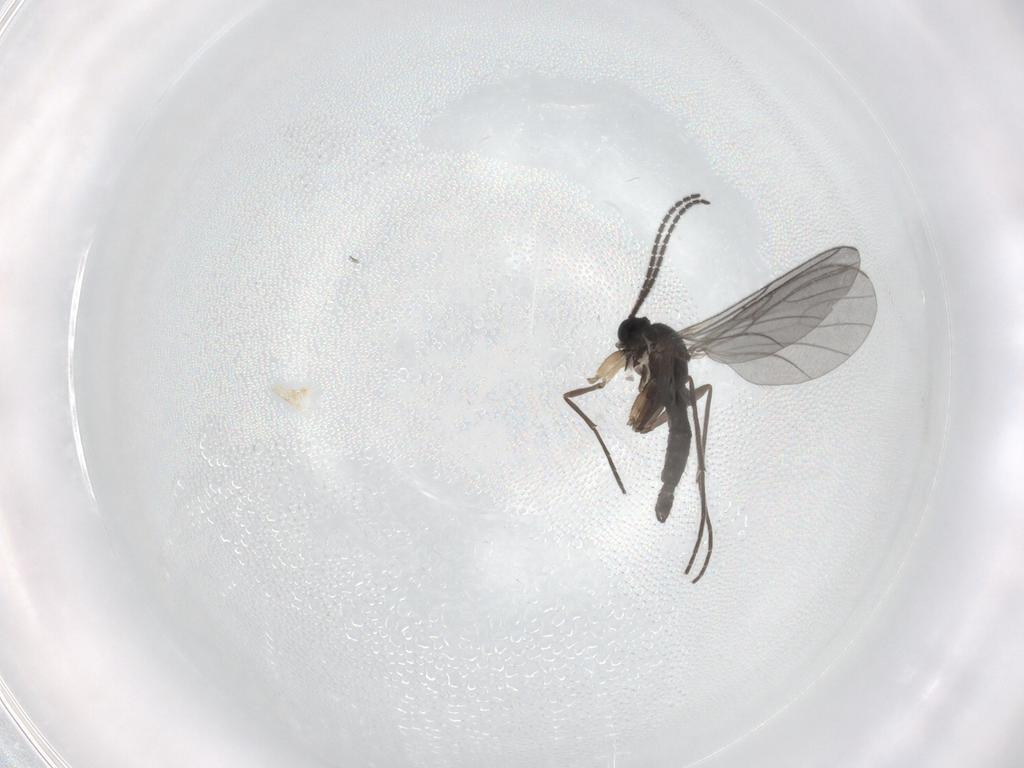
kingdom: Animalia
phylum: Arthropoda
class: Insecta
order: Diptera
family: Sciaridae
